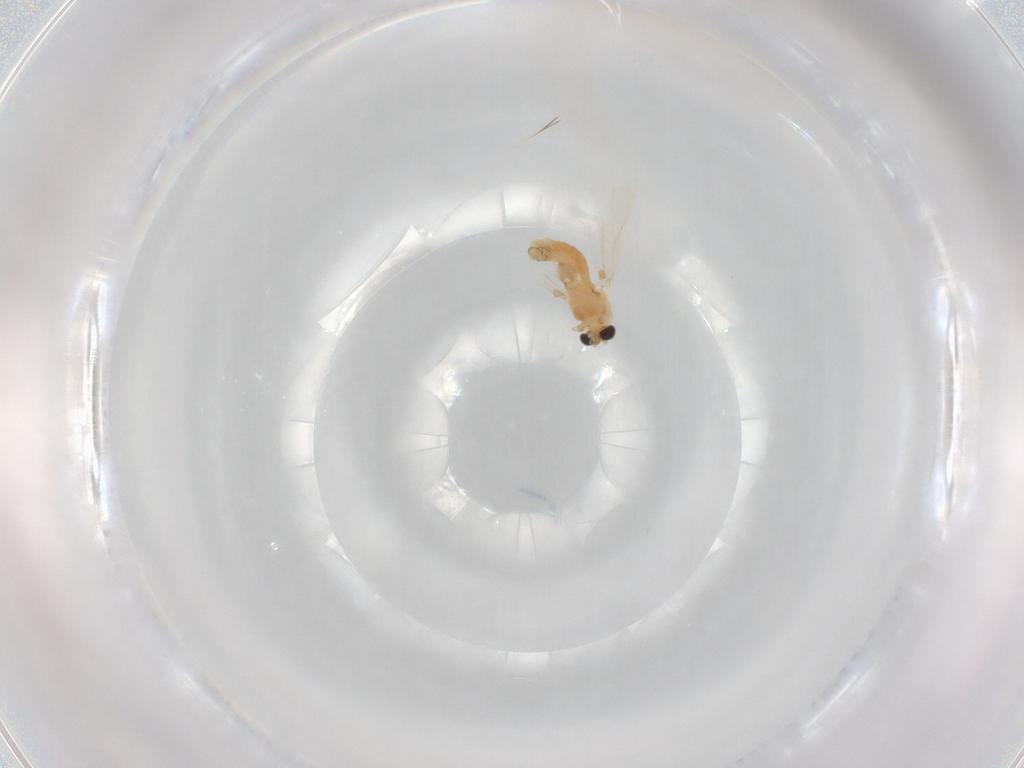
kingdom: Animalia
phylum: Arthropoda
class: Insecta
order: Diptera
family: Chironomidae
